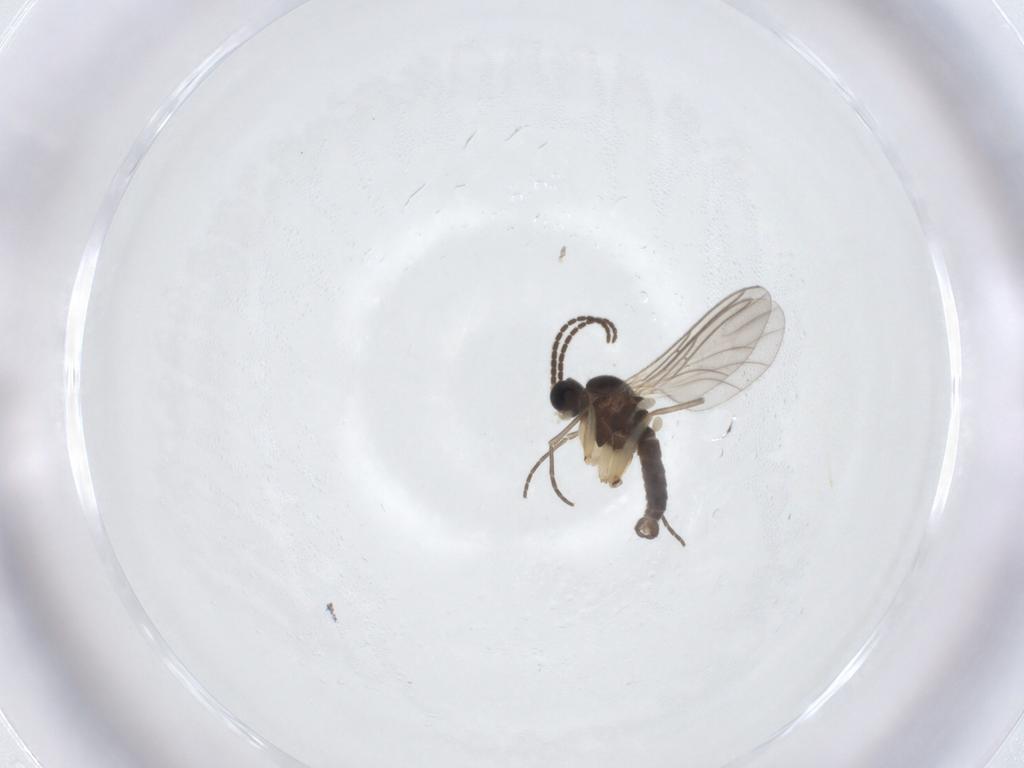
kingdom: Animalia
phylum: Arthropoda
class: Insecta
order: Diptera
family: Sciaridae
